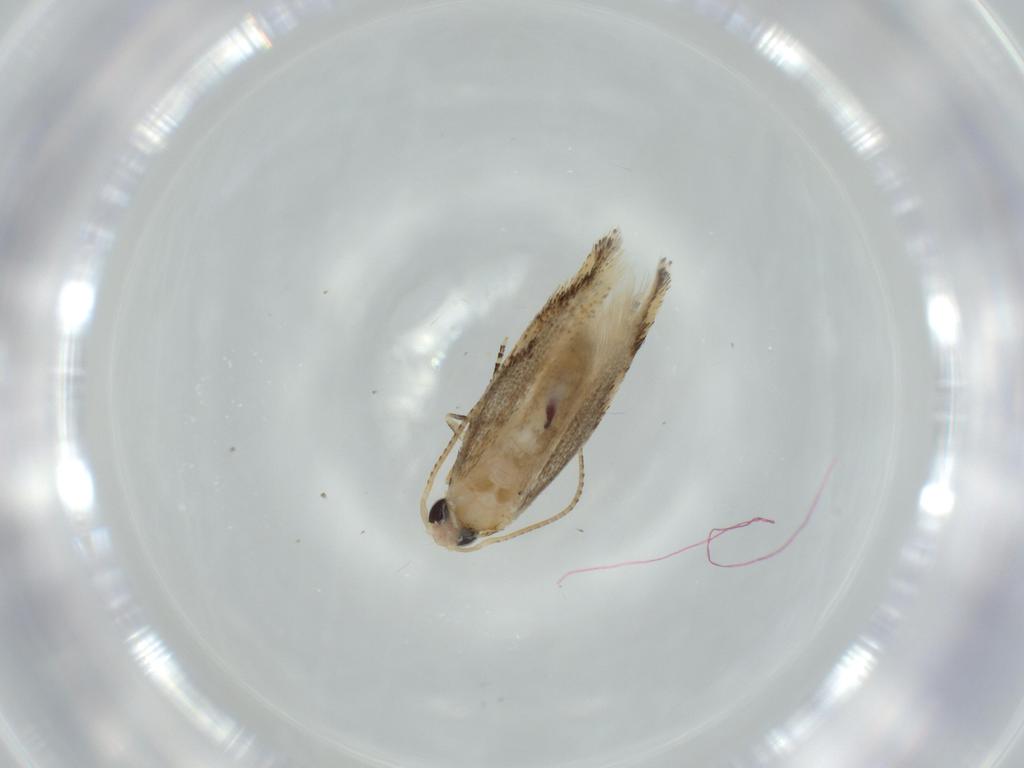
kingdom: Animalia
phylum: Arthropoda
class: Insecta
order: Lepidoptera
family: Bucculatricidae
